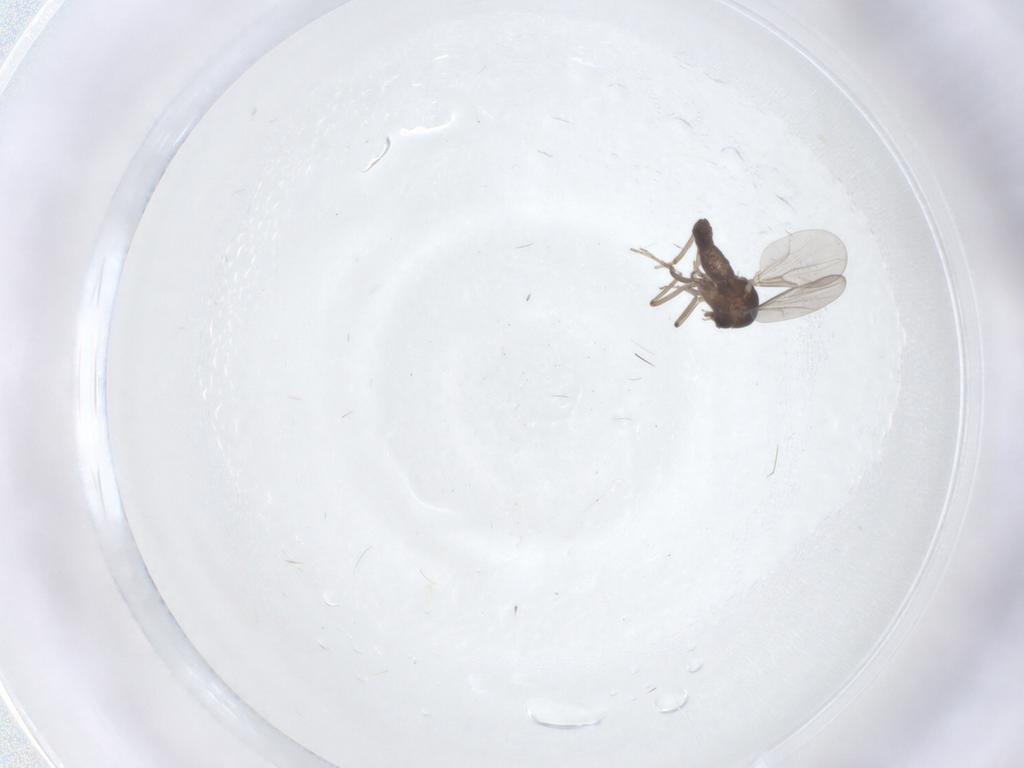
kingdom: Animalia
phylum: Arthropoda
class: Insecta
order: Diptera
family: Ceratopogonidae
